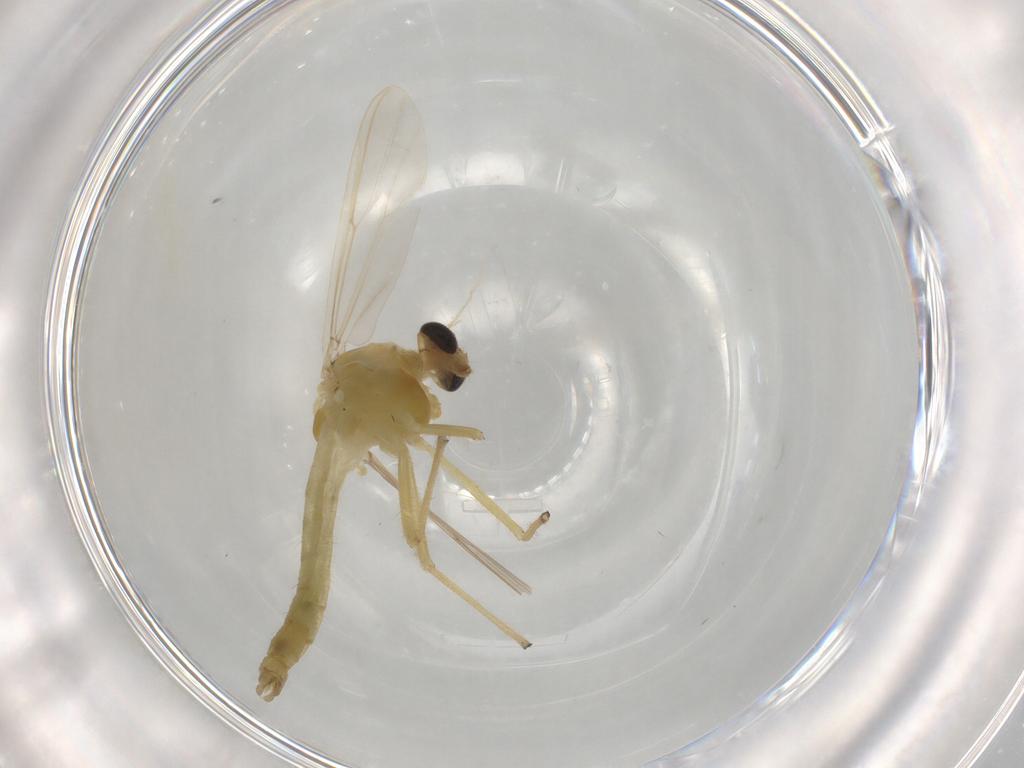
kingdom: Animalia
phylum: Arthropoda
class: Insecta
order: Diptera
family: Chironomidae
